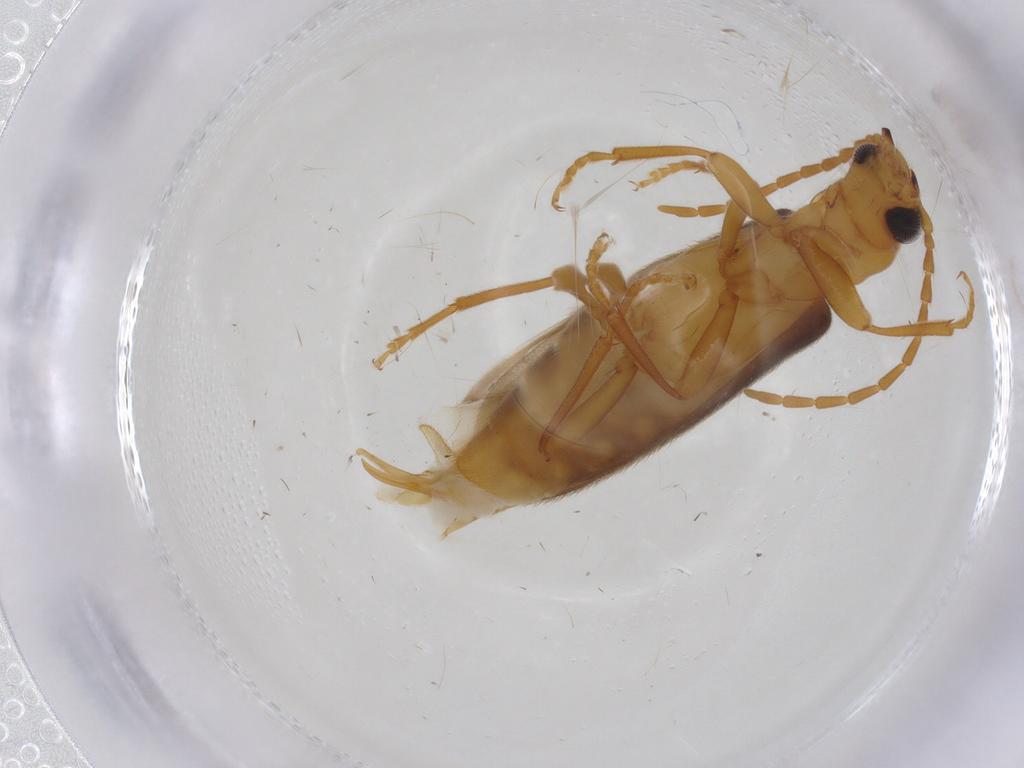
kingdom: Animalia
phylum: Arthropoda
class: Insecta
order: Coleoptera
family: Oedemeridae
